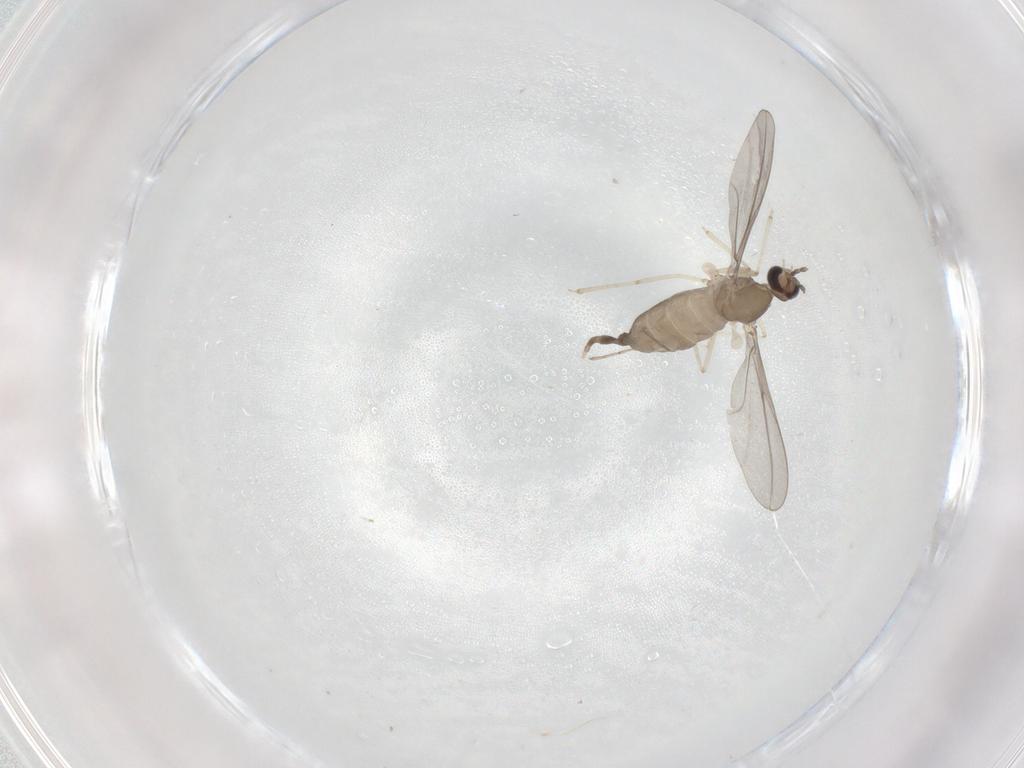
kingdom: Animalia
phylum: Arthropoda
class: Insecta
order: Diptera
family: Cecidomyiidae
